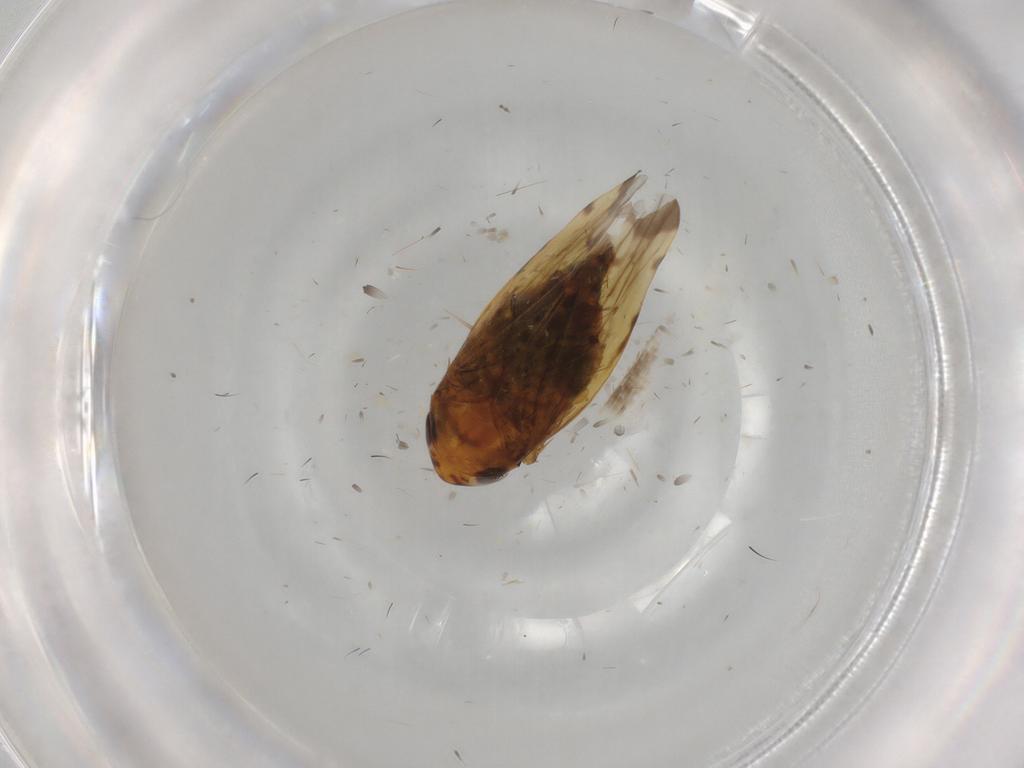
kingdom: Animalia
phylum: Arthropoda
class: Insecta
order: Hemiptera
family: Cicadellidae
